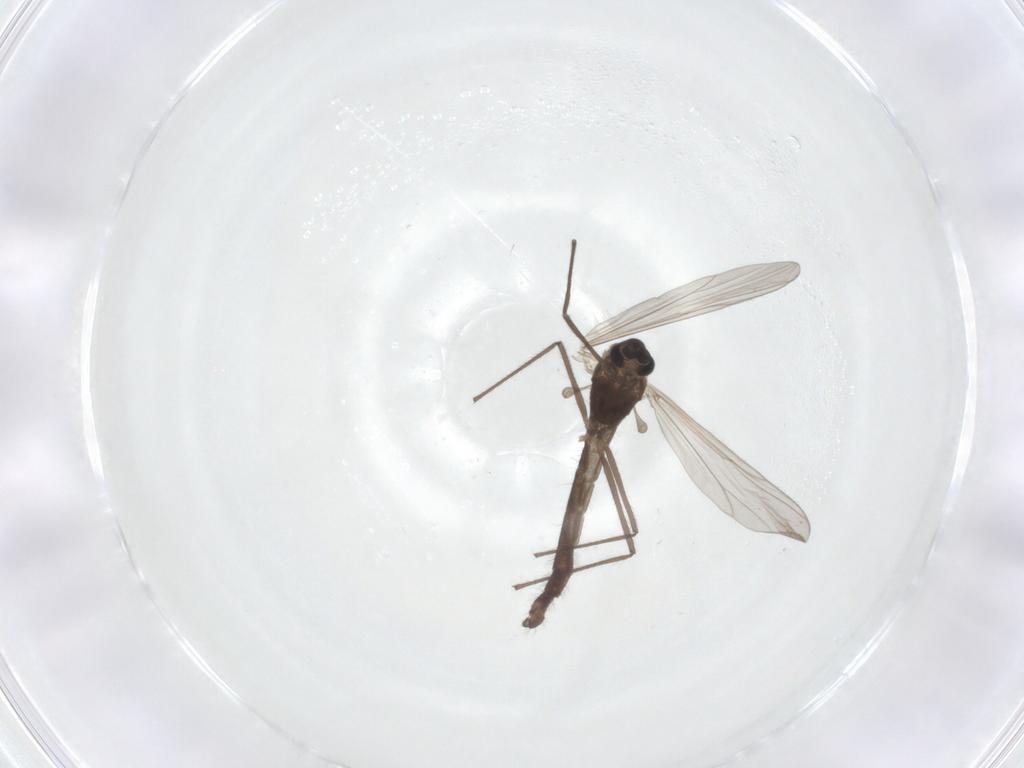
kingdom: Animalia
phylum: Arthropoda
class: Insecta
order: Diptera
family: Chironomidae
